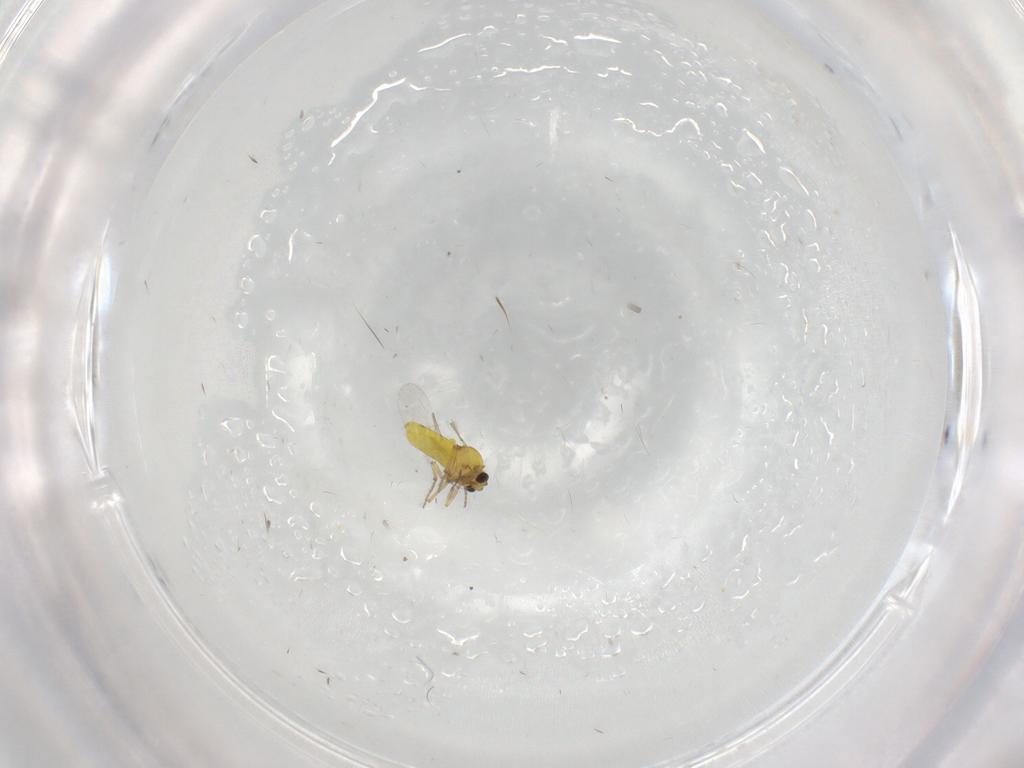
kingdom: Animalia
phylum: Arthropoda
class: Insecta
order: Diptera
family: Ceratopogonidae
